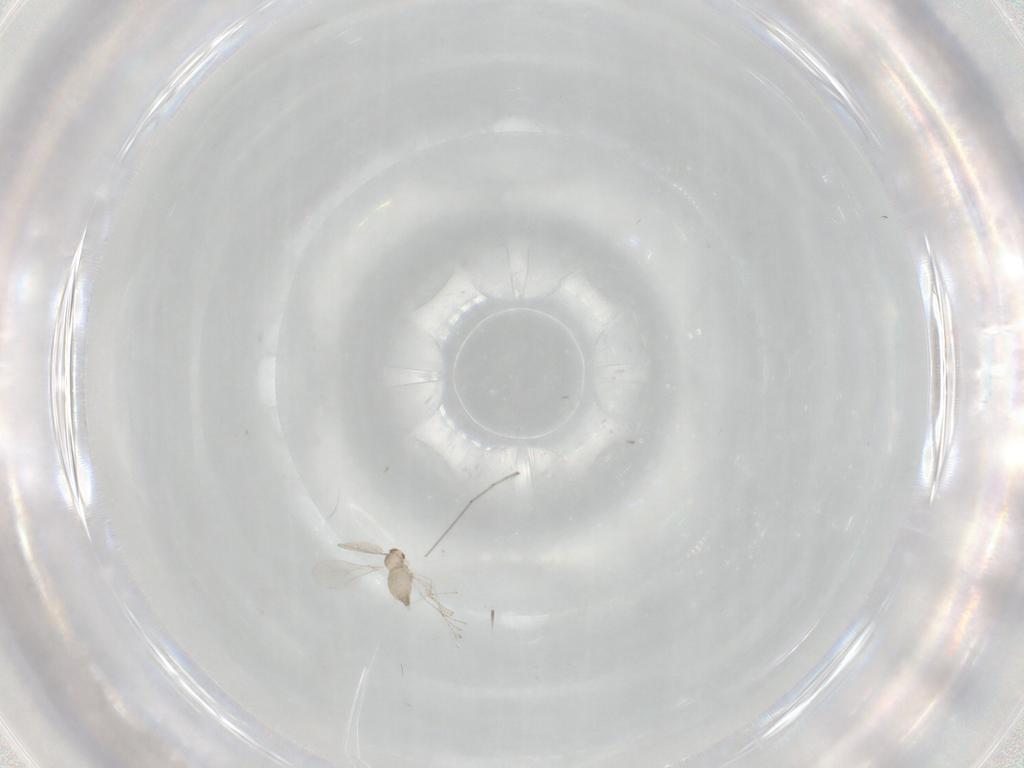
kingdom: Animalia
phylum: Arthropoda
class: Insecta
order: Diptera
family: Cecidomyiidae
